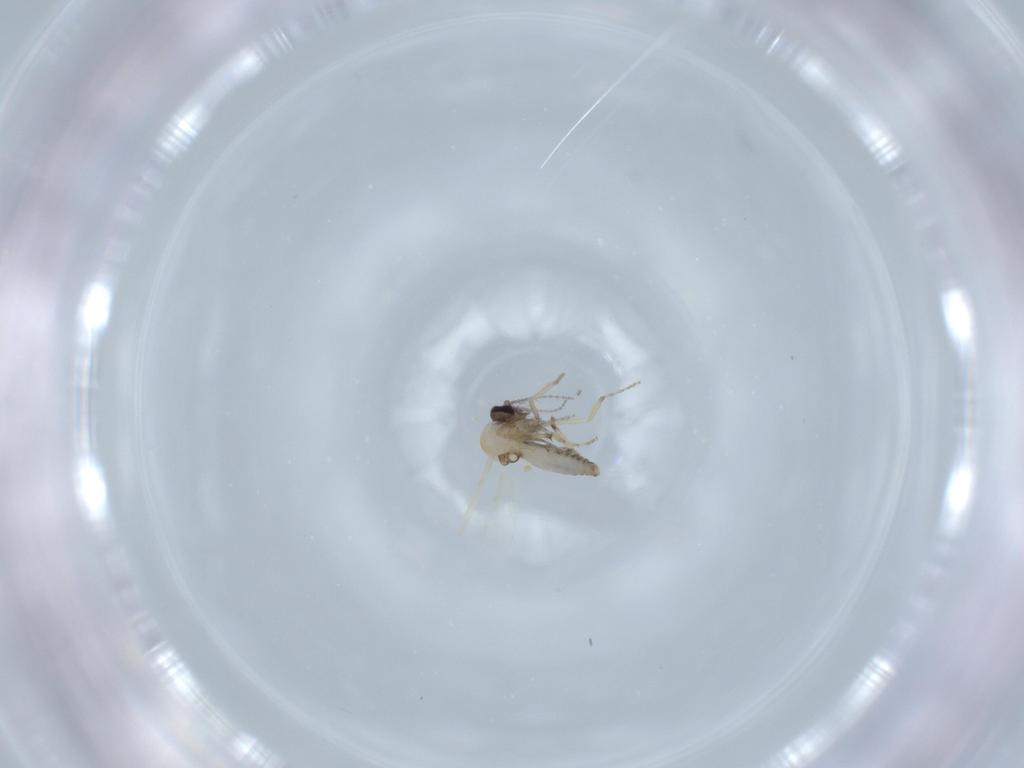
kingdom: Animalia
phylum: Arthropoda
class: Insecta
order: Diptera
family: Ceratopogonidae
